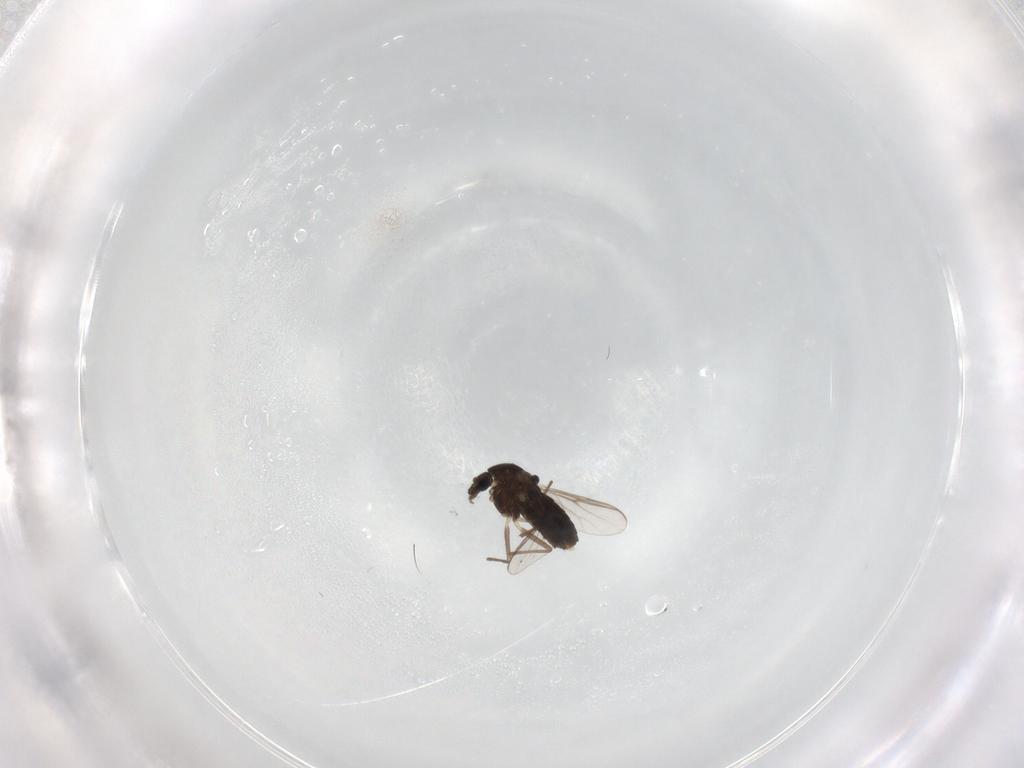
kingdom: Animalia
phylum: Arthropoda
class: Insecta
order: Diptera
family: Chironomidae
